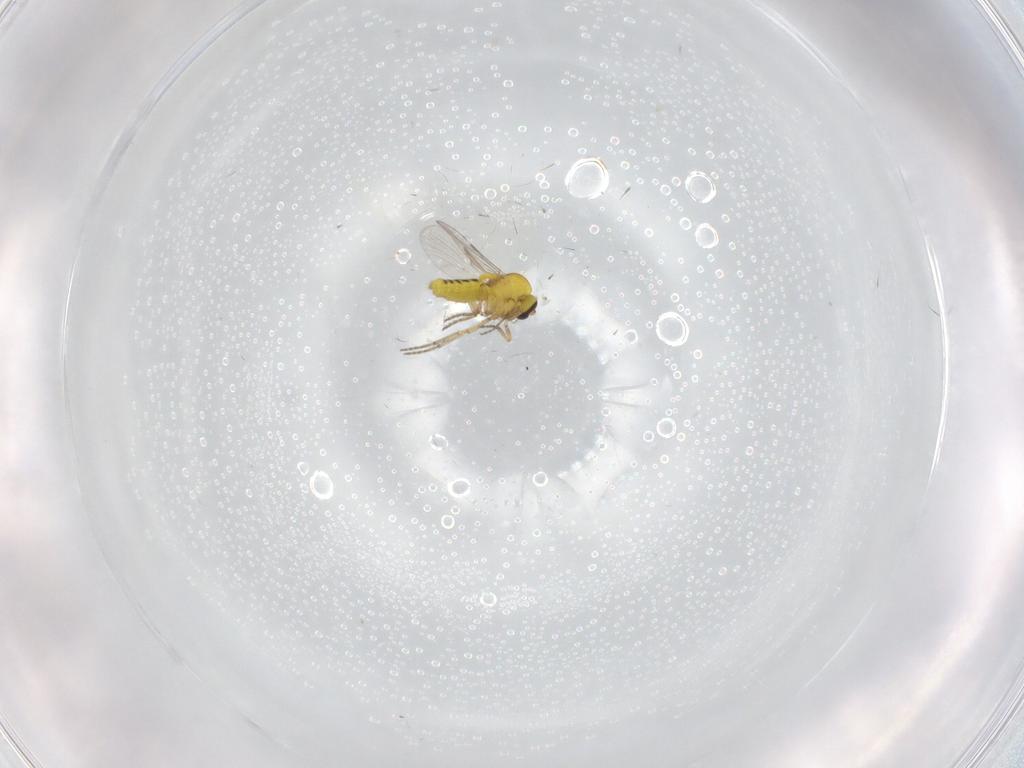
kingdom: Animalia
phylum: Arthropoda
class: Insecta
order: Diptera
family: Ceratopogonidae
